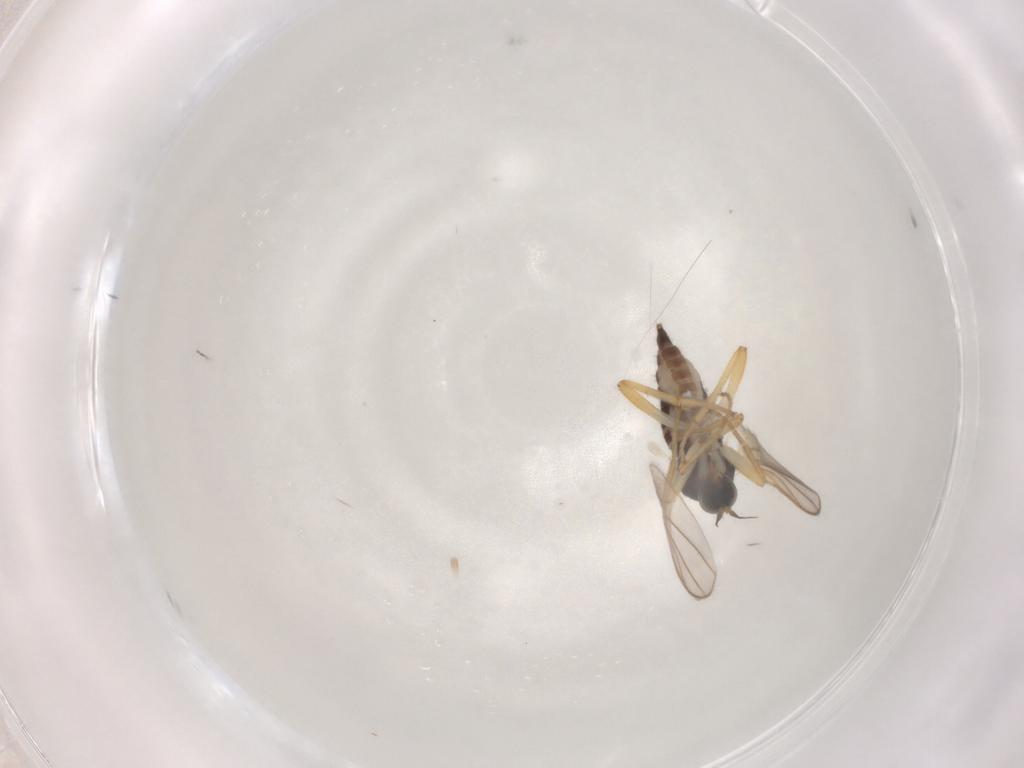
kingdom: Animalia
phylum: Arthropoda
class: Insecta
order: Diptera
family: Hybotidae
